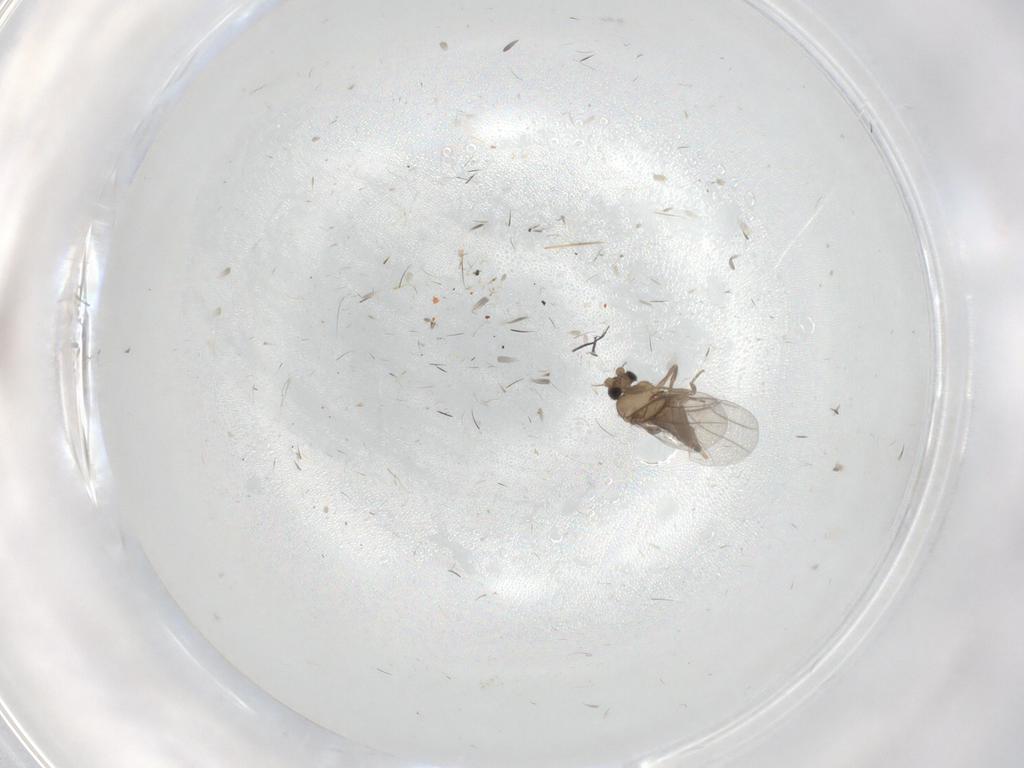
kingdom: Animalia
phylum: Arthropoda
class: Insecta
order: Diptera
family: Cecidomyiidae
